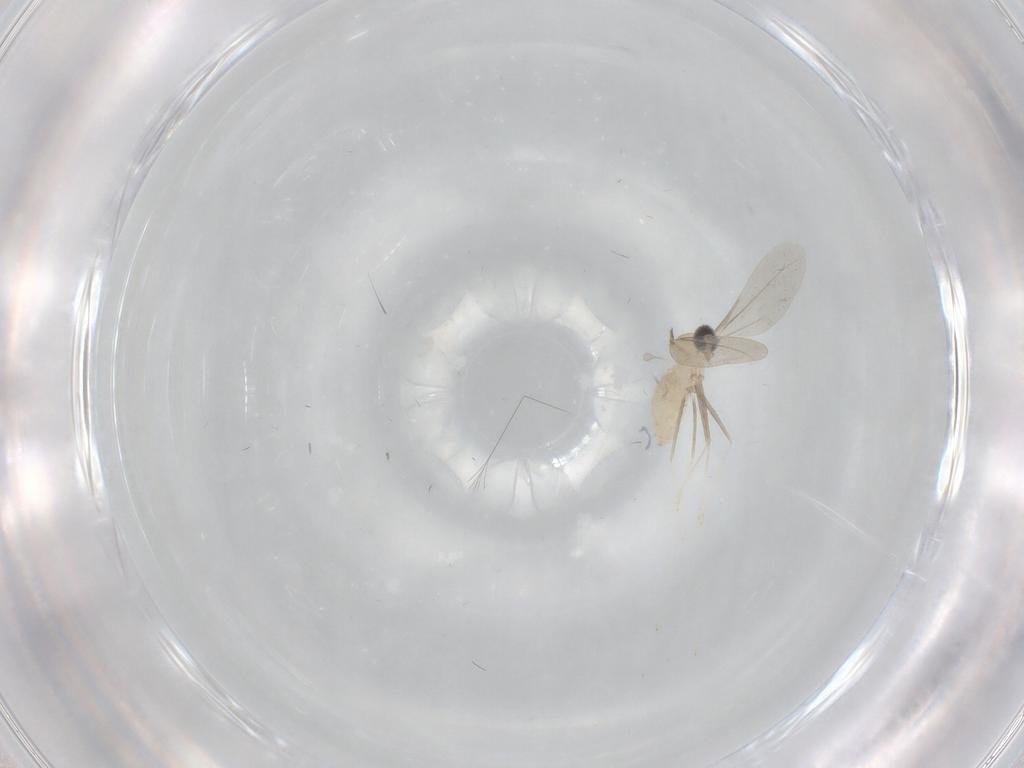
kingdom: Animalia
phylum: Arthropoda
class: Insecta
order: Diptera
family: Cecidomyiidae
